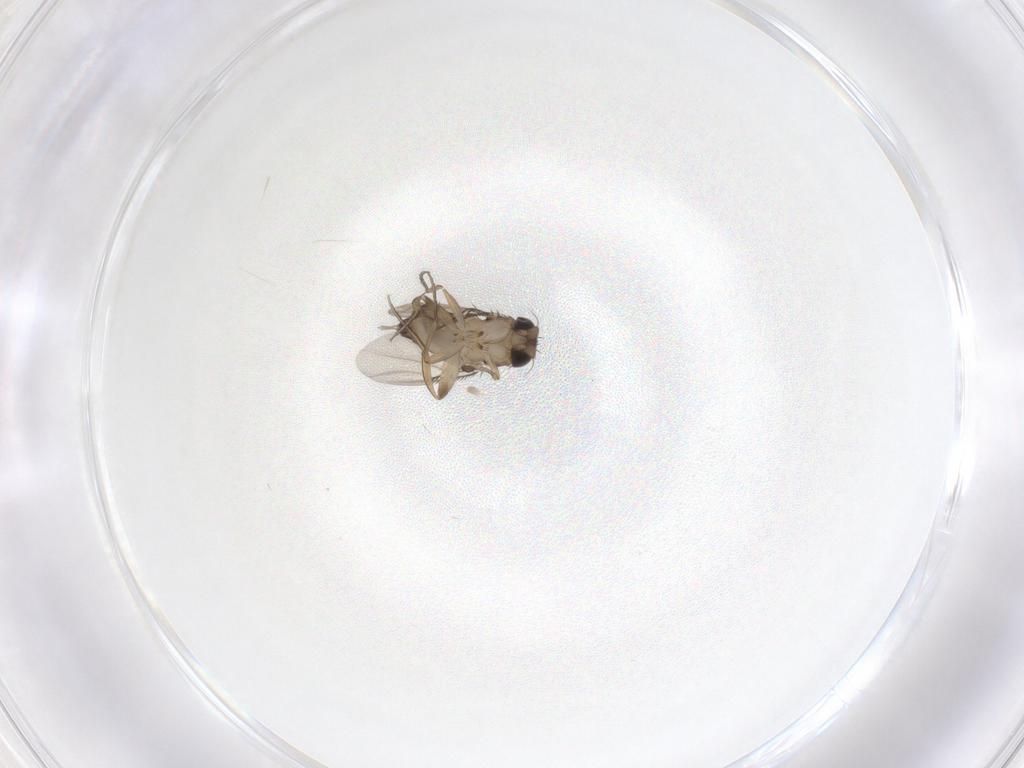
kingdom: Animalia
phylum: Arthropoda
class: Insecta
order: Diptera
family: Phoridae
